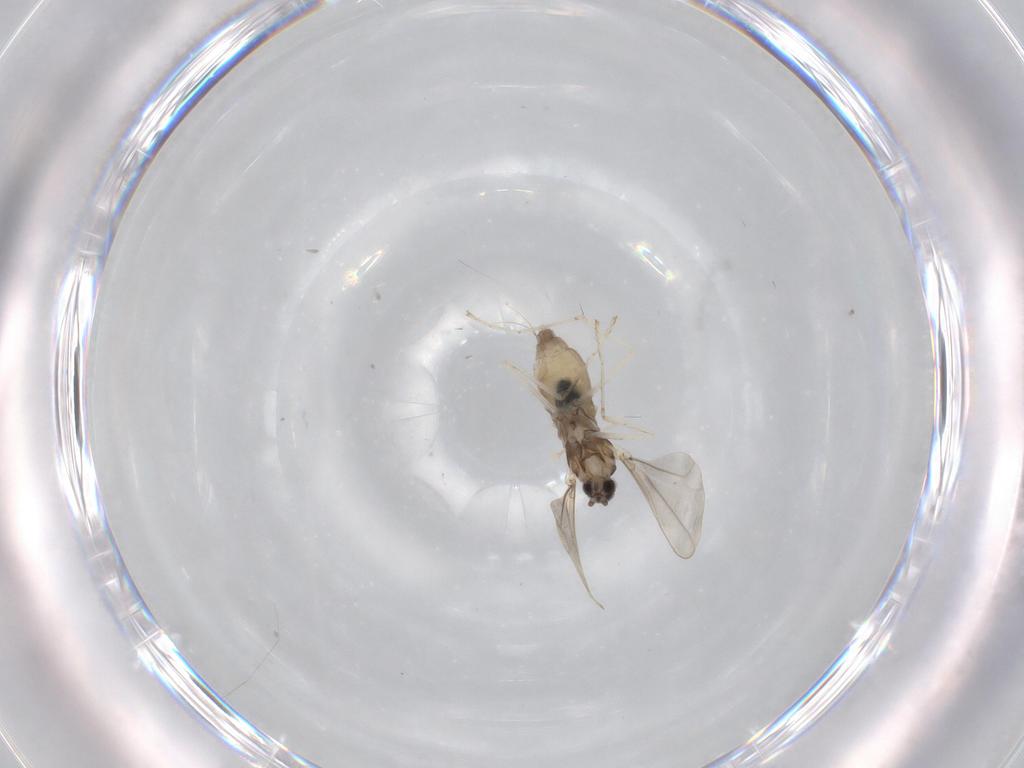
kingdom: Animalia
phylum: Arthropoda
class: Insecta
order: Diptera
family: Cecidomyiidae
